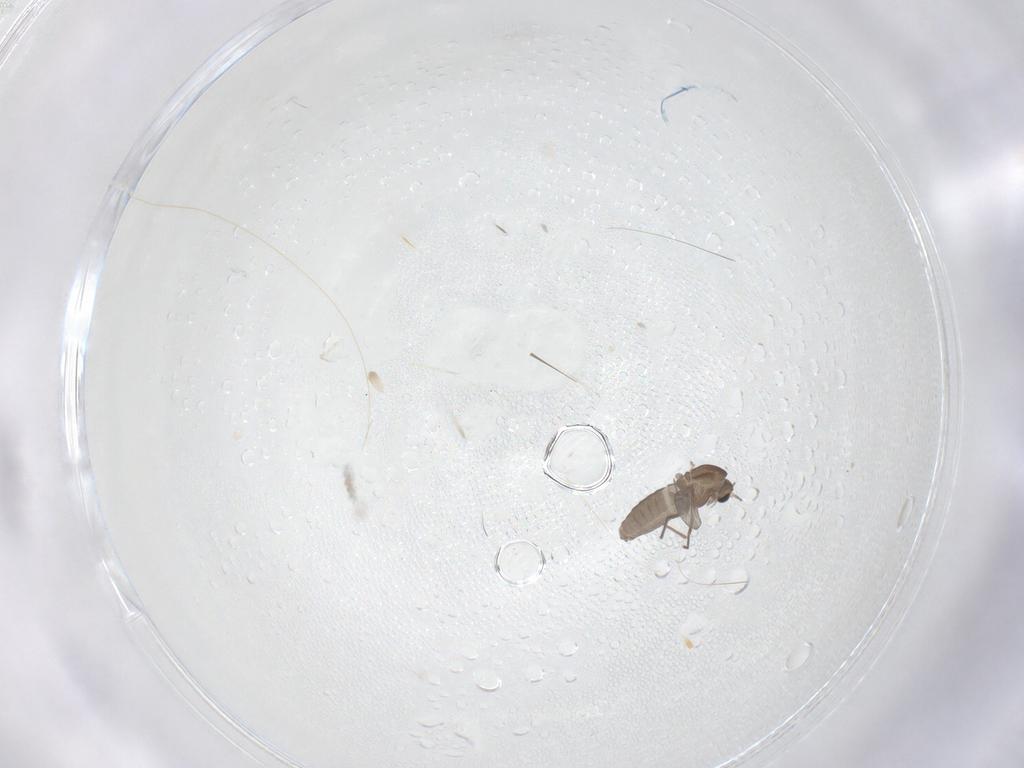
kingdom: Animalia
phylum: Arthropoda
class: Insecta
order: Diptera
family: Chironomidae
